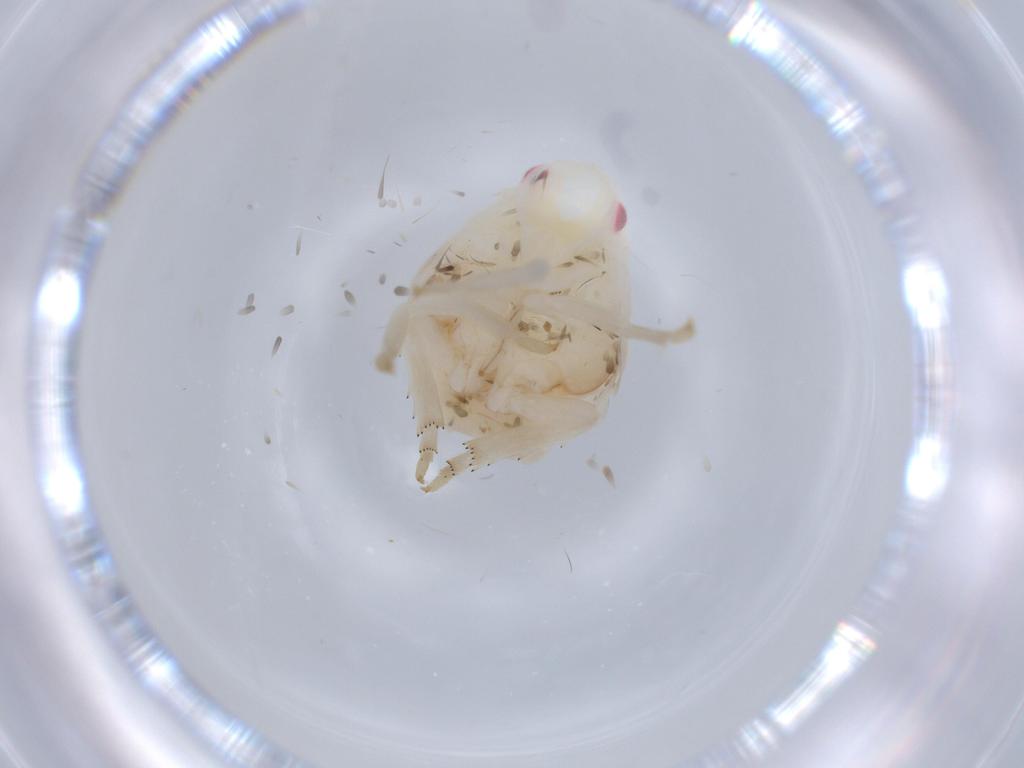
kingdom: Animalia
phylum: Arthropoda
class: Insecta
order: Hemiptera
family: Flatidae
